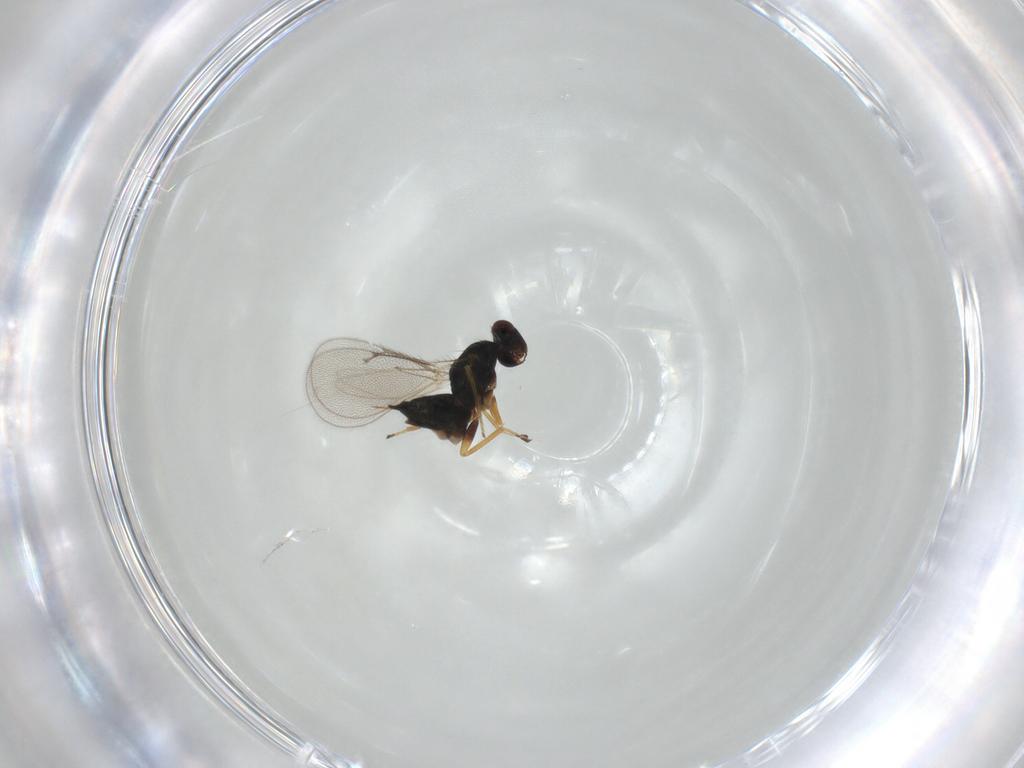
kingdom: Animalia
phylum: Arthropoda
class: Insecta
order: Hymenoptera
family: Eulophidae
